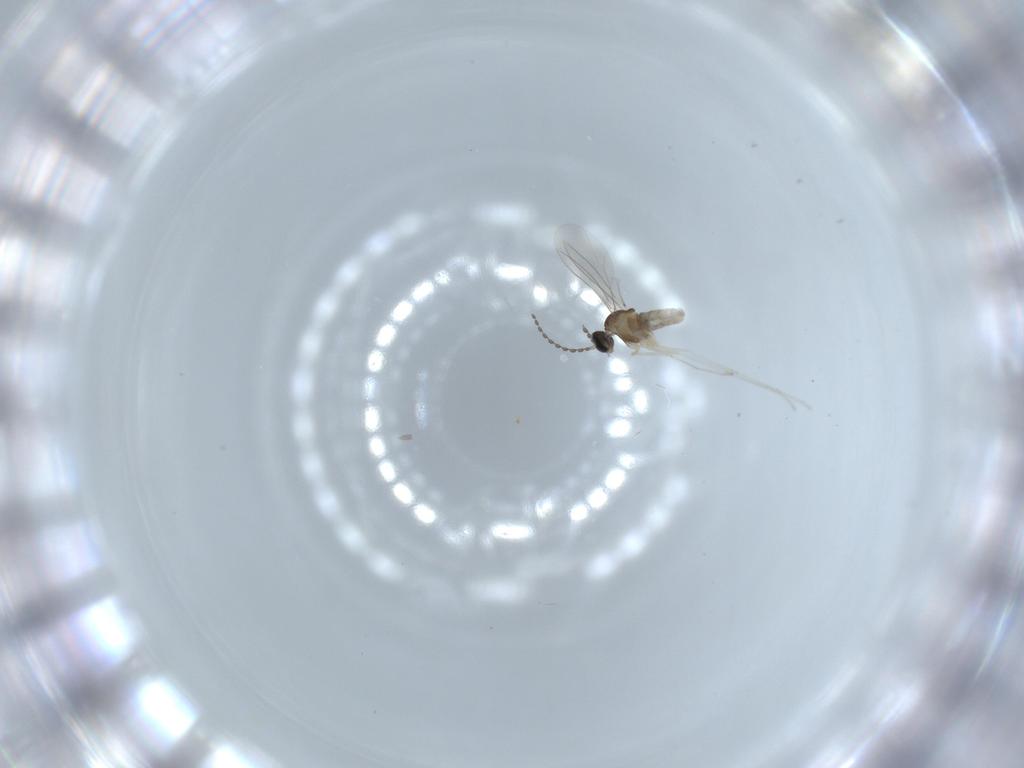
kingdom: Animalia
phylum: Arthropoda
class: Insecta
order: Diptera
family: Cecidomyiidae
